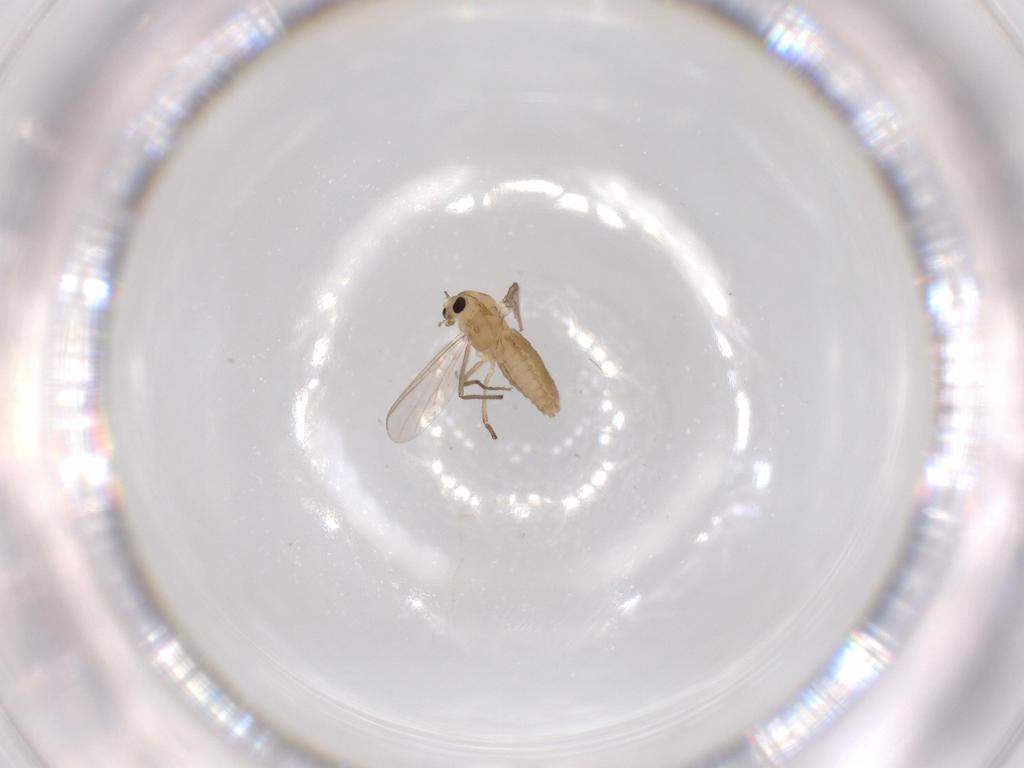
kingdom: Animalia
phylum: Arthropoda
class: Insecta
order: Diptera
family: Chironomidae
